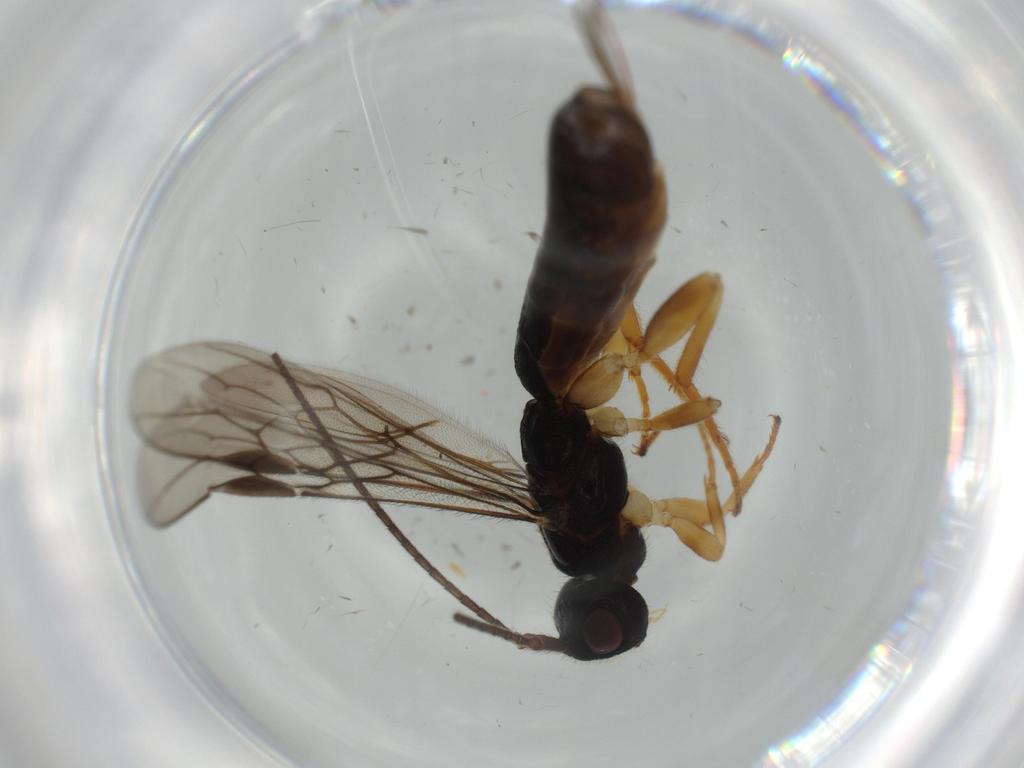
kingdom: Animalia
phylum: Arthropoda
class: Insecta
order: Hymenoptera
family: Braconidae
